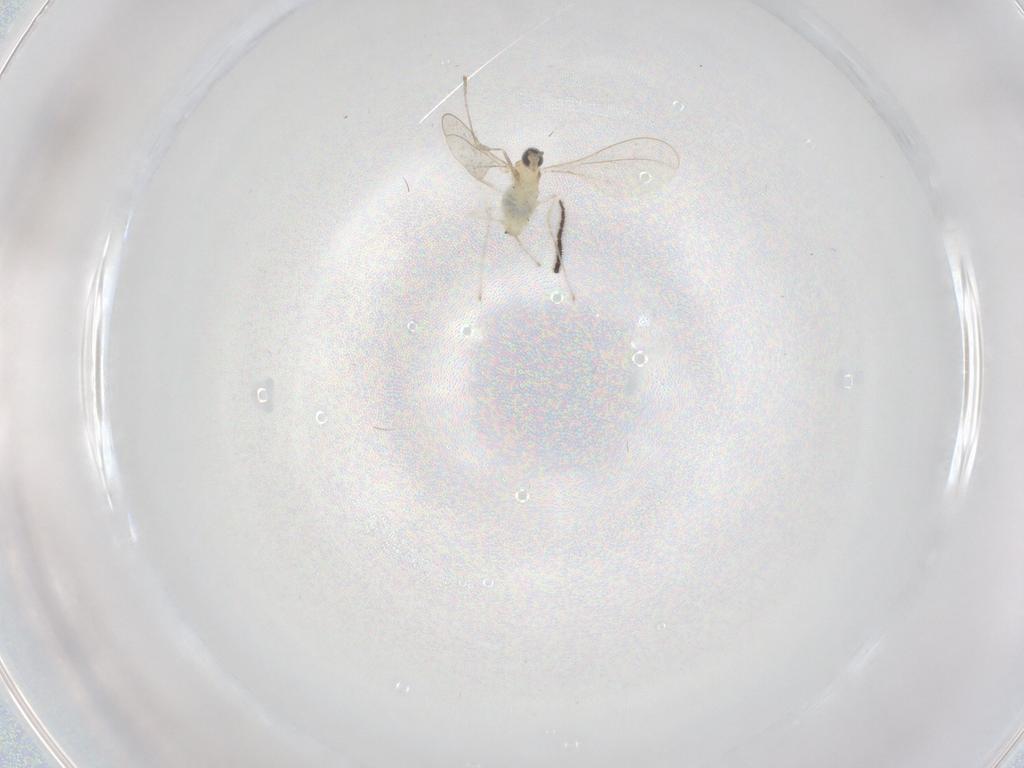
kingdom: Animalia
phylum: Arthropoda
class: Insecta
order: Diptera
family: Cecidomyiidae
